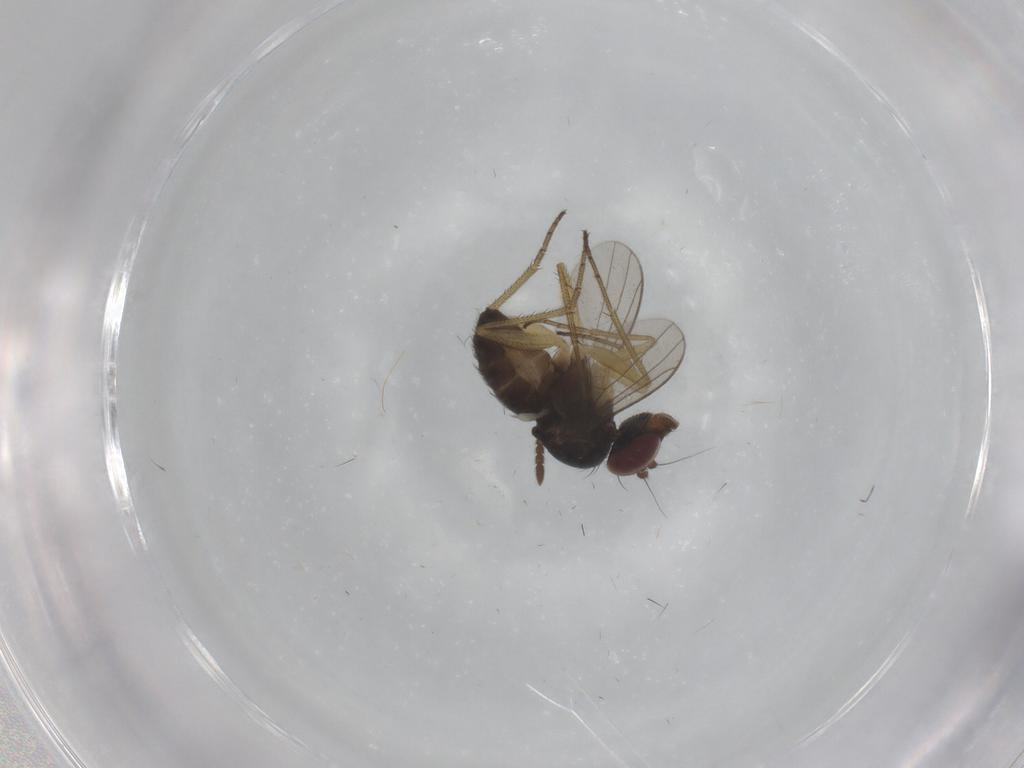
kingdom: Animalia
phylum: Arthropoda
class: Insecta
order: Diptera
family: Dolichopodidae
